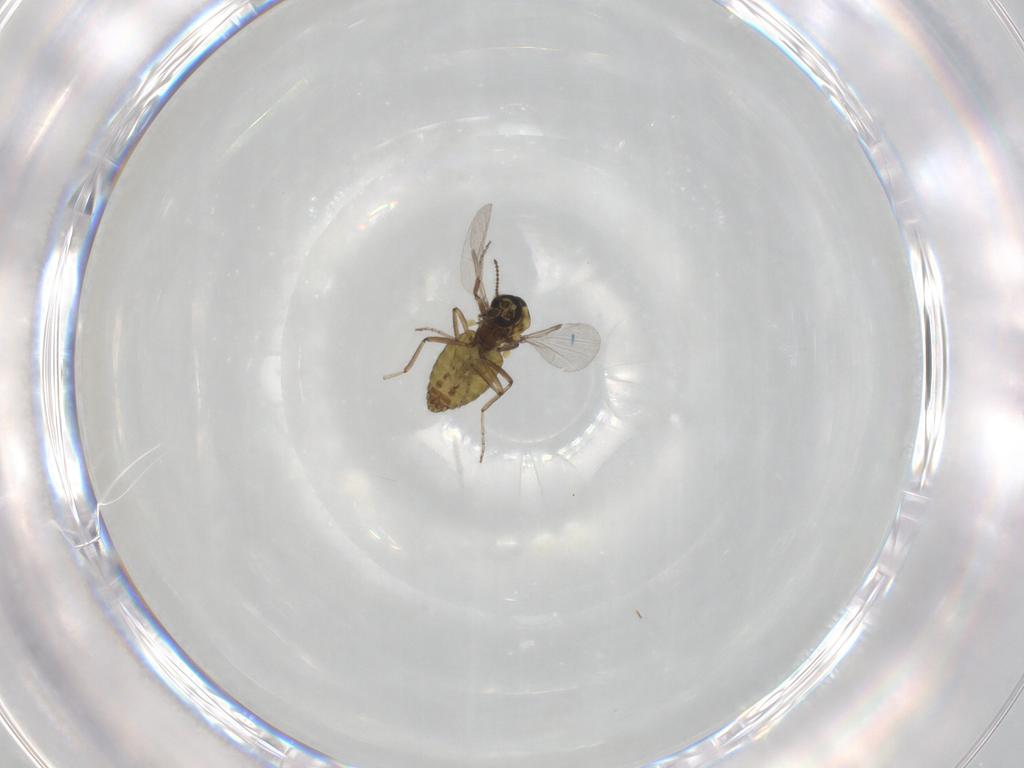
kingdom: Animalia
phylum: Arthropoda
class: Insecta
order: Diptera
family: Ceratopogonidae
